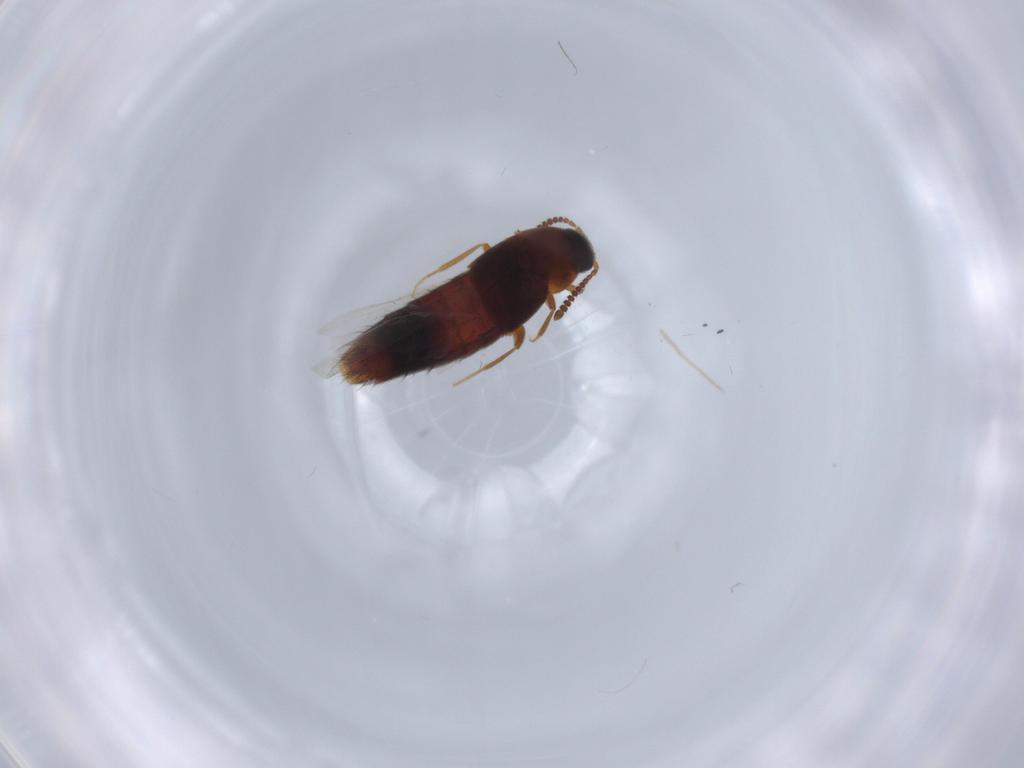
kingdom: Animalia
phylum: Arthropoda
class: Insecta
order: Coleoptera
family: Staphylinidae
